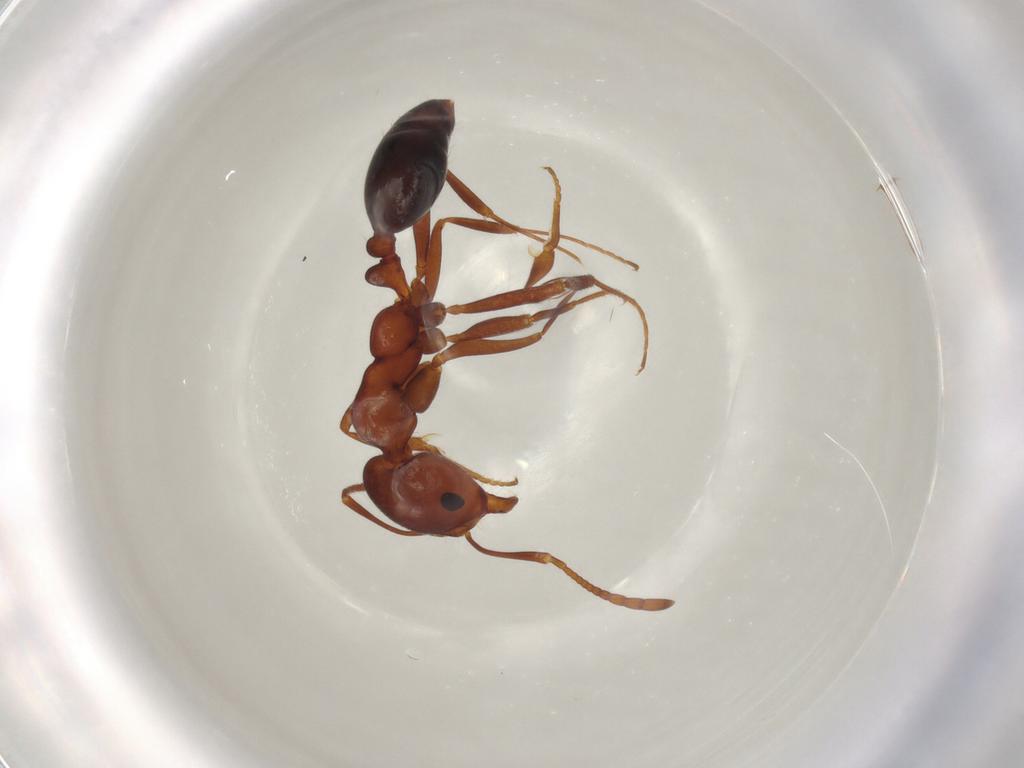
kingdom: Animalia
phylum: Arthropoda
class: Insecta
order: Hymenoptera
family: Formicidae
